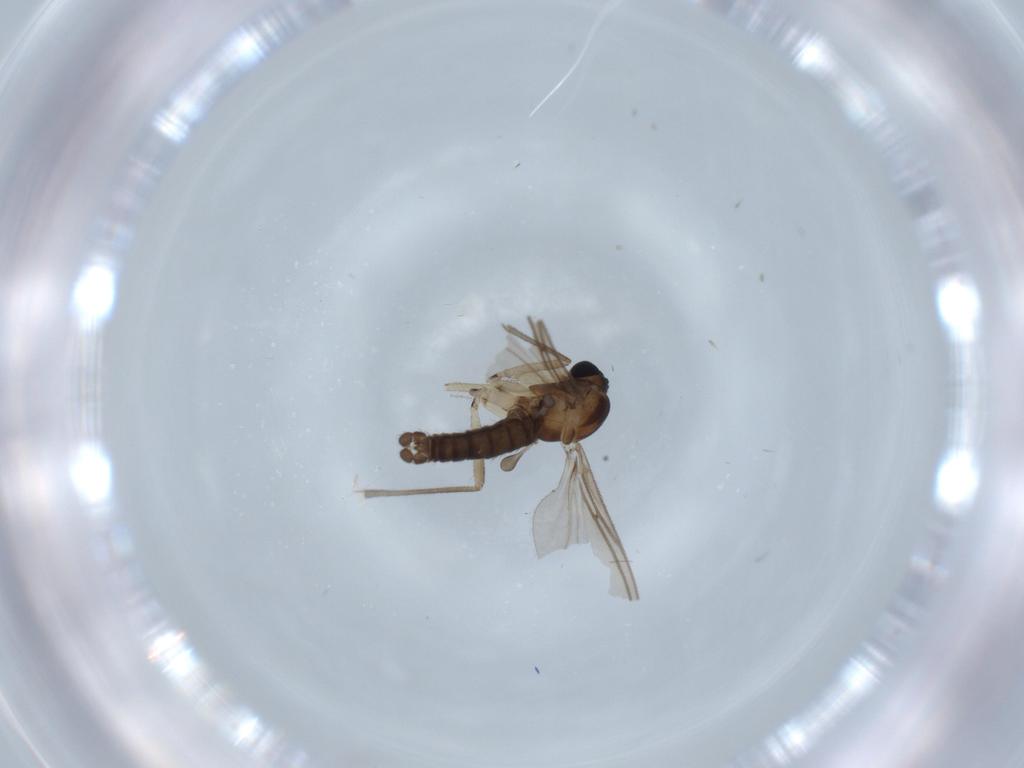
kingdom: Animalia
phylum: Arthropoda
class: Insecta
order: Diptera
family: Sciaridae
